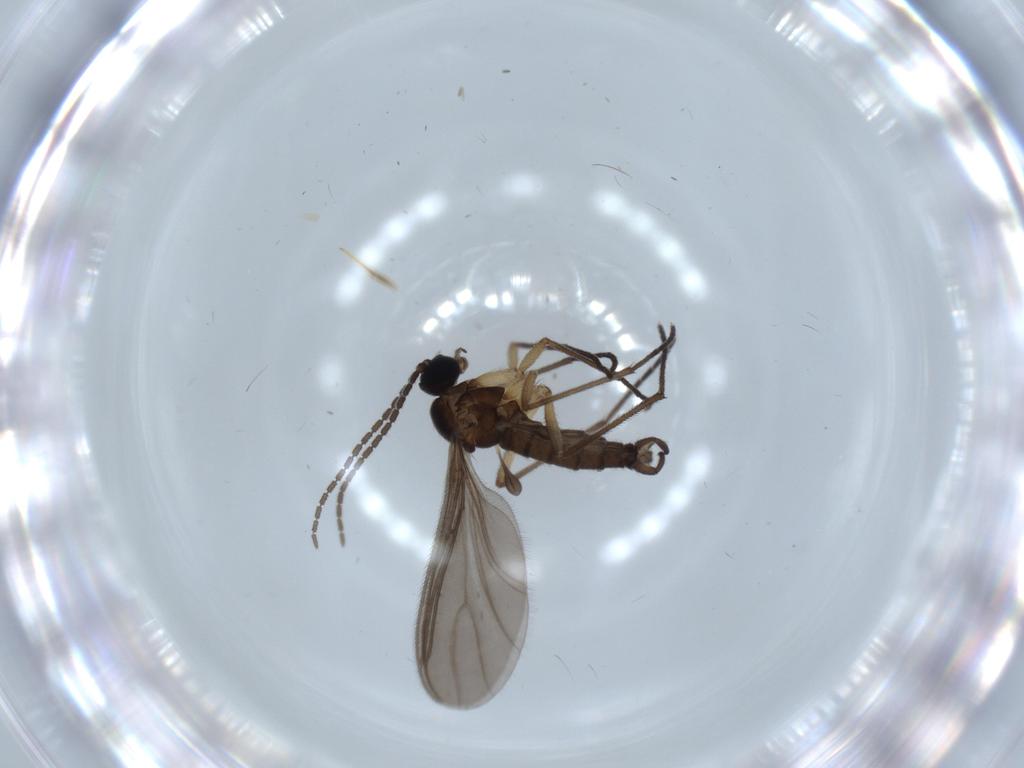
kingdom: Animalia
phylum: Arthropoda
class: Insecta
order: Diptera
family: Sciaridae
